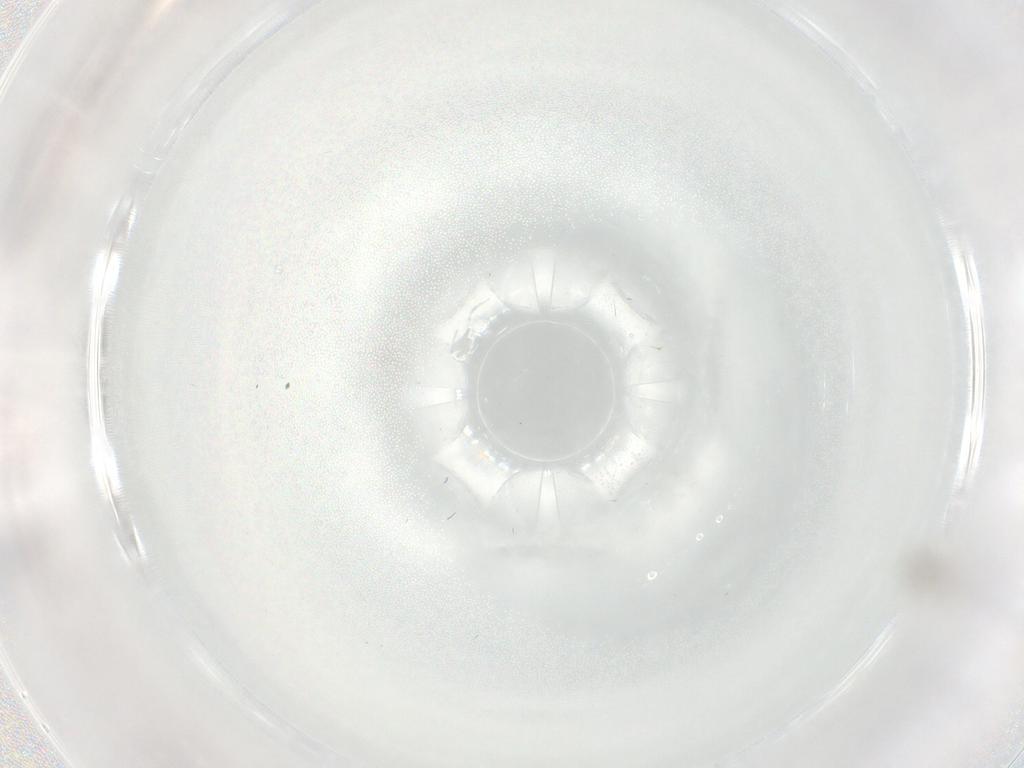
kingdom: Animalia
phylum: Arthropoda
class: Insecta
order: Diptera
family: Cecidomyiidae
